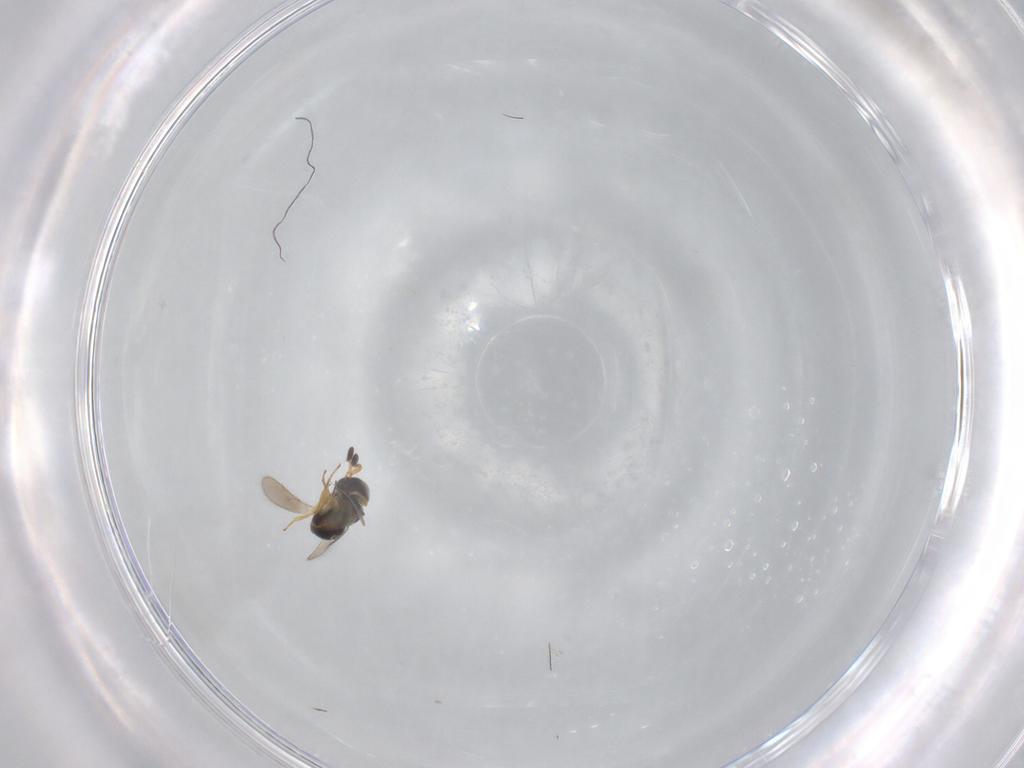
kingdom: Animalia
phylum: Arthropoda
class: Insecta
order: Hymenoptera
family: Scelionidae
